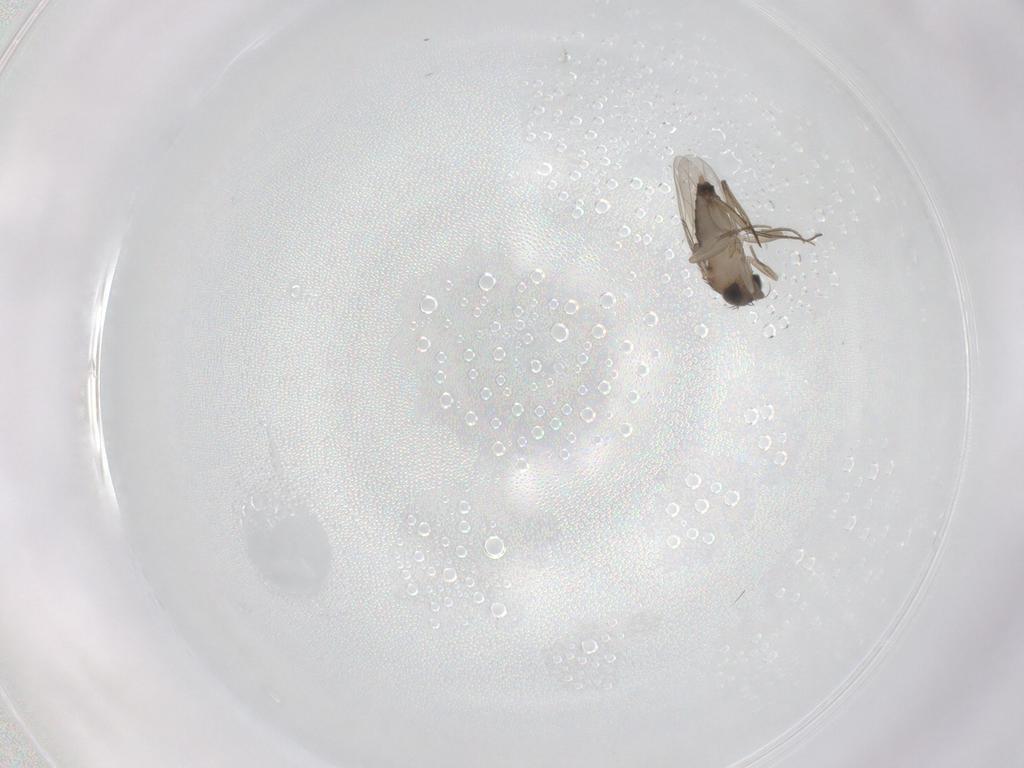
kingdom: Animalia
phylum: Arthropoda
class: Insecta
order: Diptera
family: Phoridae
